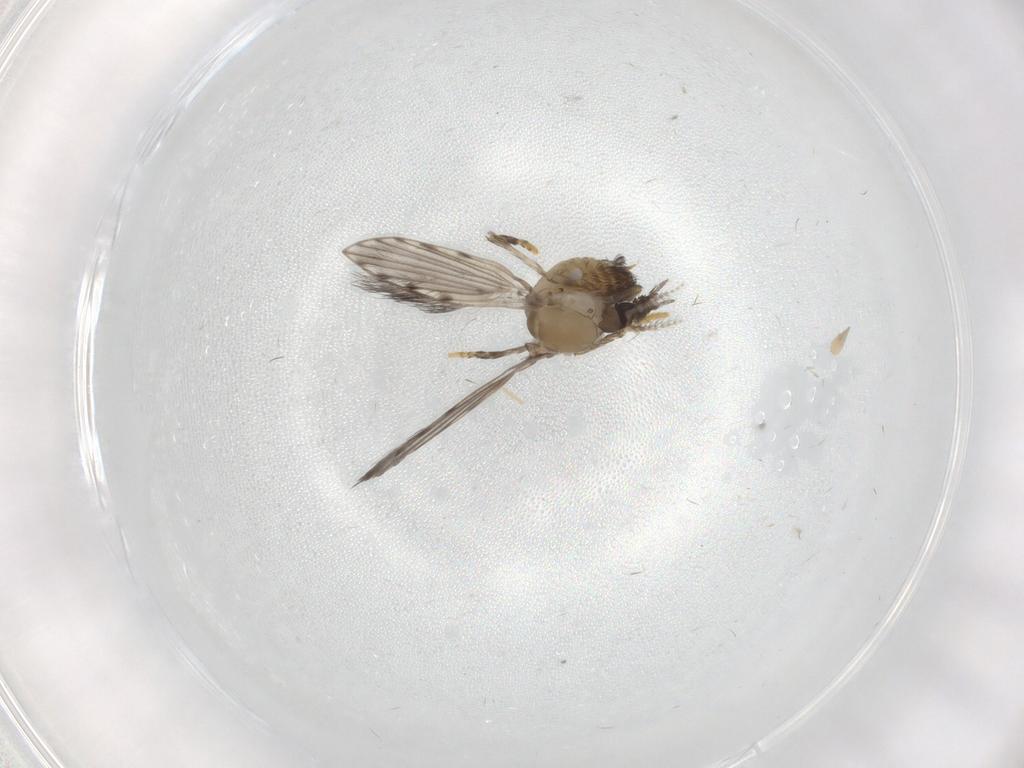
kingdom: Animalia
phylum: Arthropoda
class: Insecta
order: Diptera
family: Psychodidae
